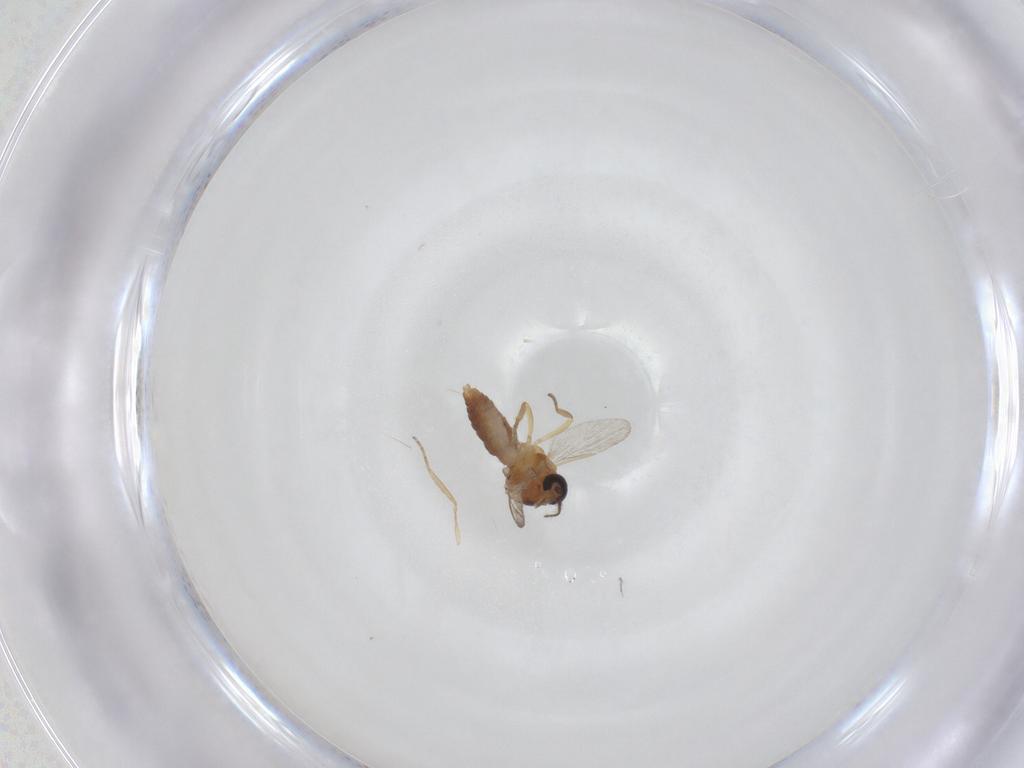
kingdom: Animalia
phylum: Arthropoda
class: Insecta
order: Diptera
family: Ceratopogonidae
